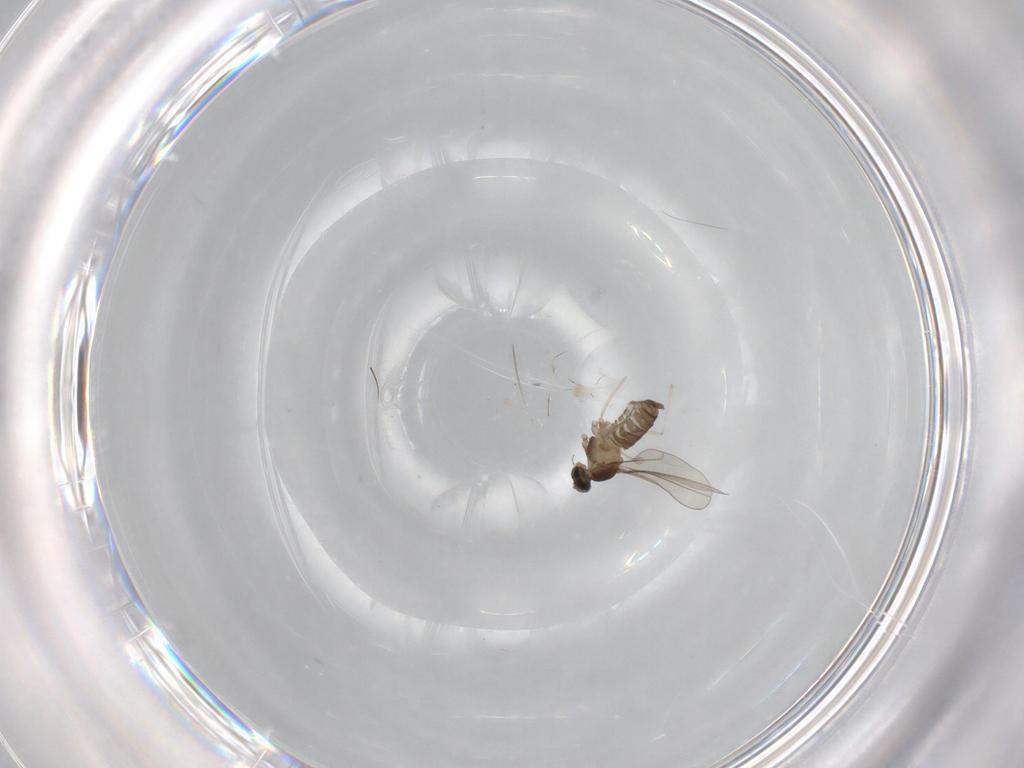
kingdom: Animalia
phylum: Arthropoda
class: Insecta
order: Diptera
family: Cecidomyiidae
